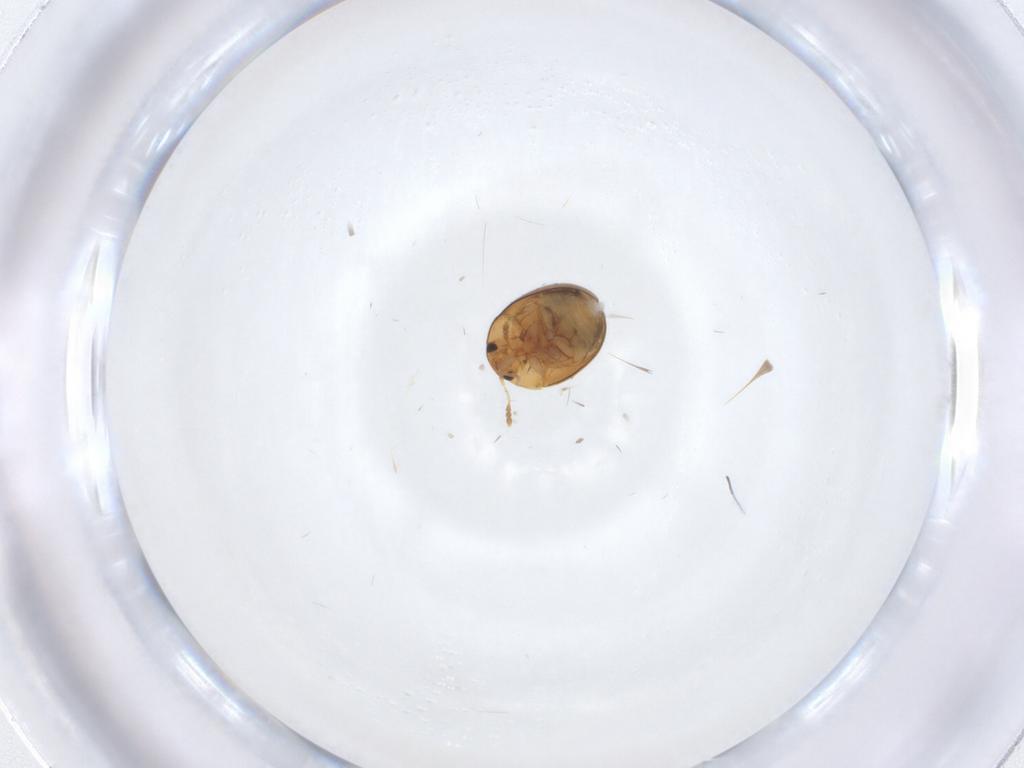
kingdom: Animalia
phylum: Arthropoda
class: Insecta
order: Coleoptera
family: Phalacridae
